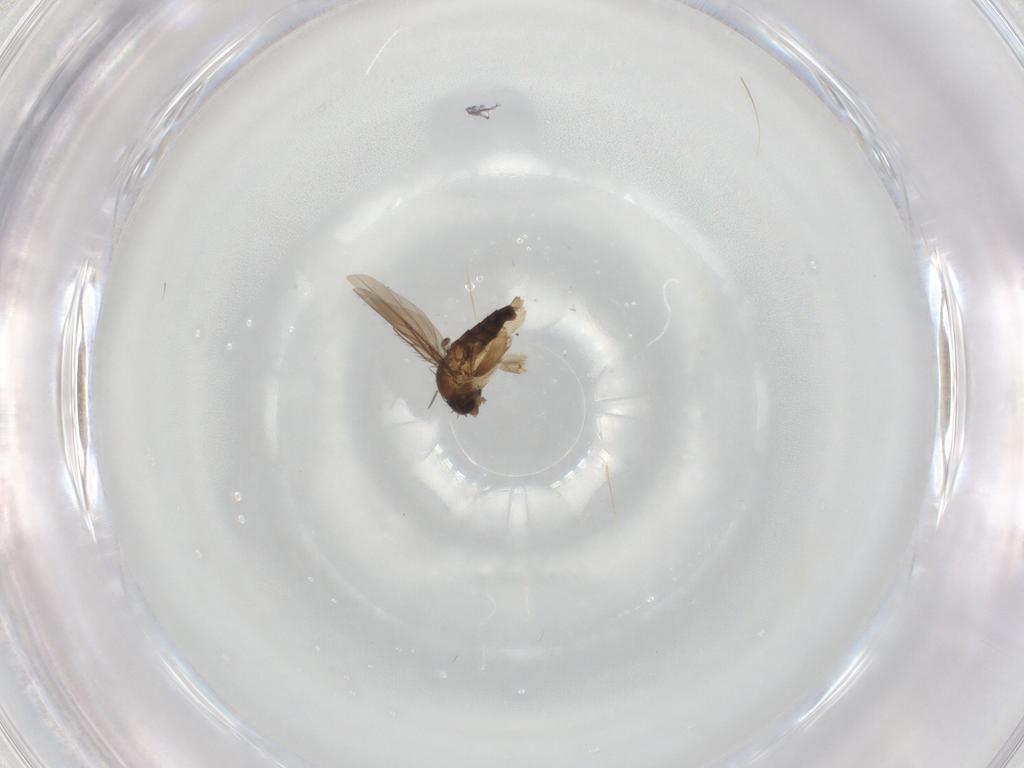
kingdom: Animalia
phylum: Arthropoda
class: Insecta
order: Diptera
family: Phoridae
